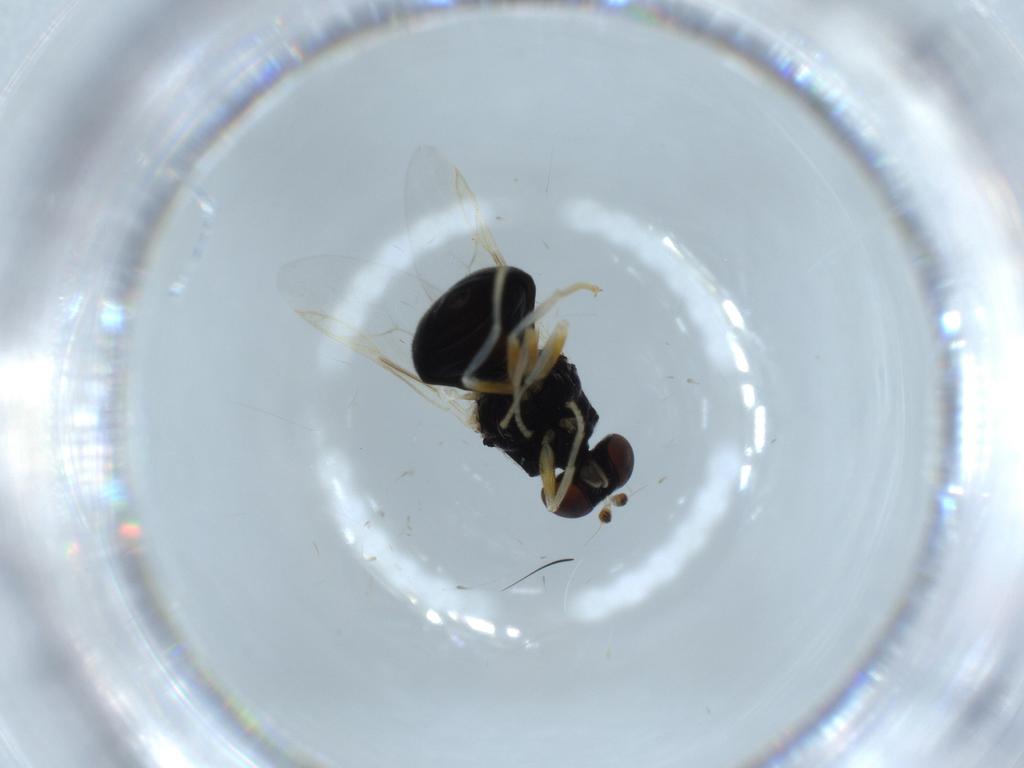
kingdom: Animalia
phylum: Arthropoda
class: Insecta
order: Diptera
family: Stratiomyidae
